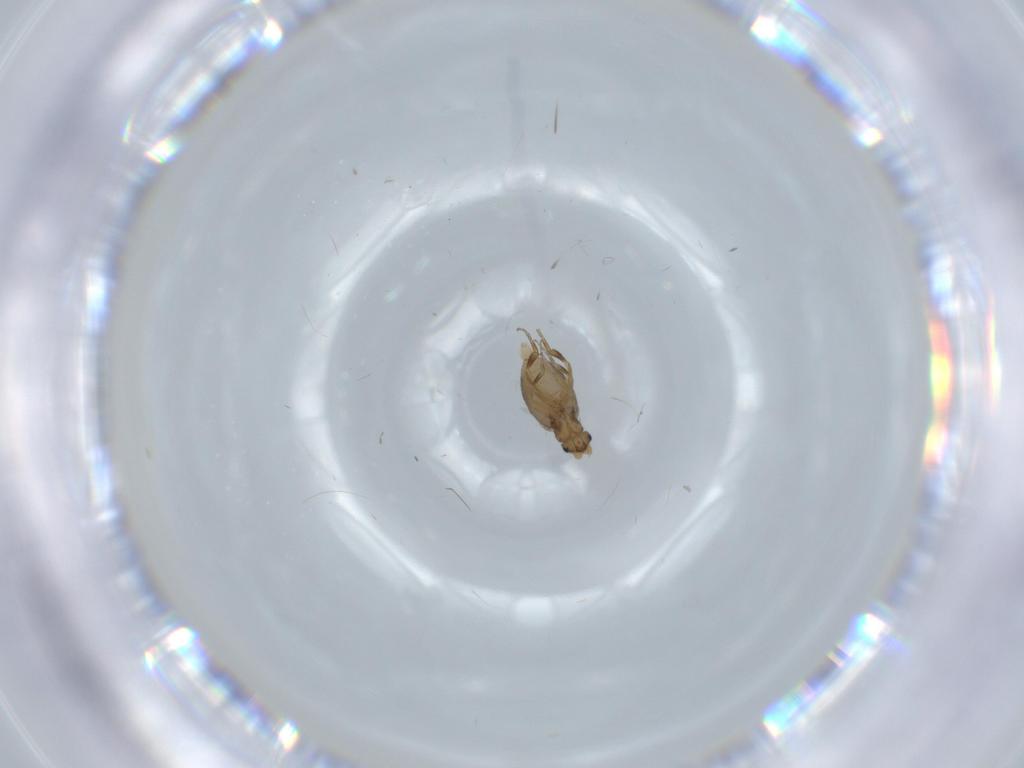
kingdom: Animalia
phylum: Arthropoda
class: Insecta
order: Diptera
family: Phoridae
